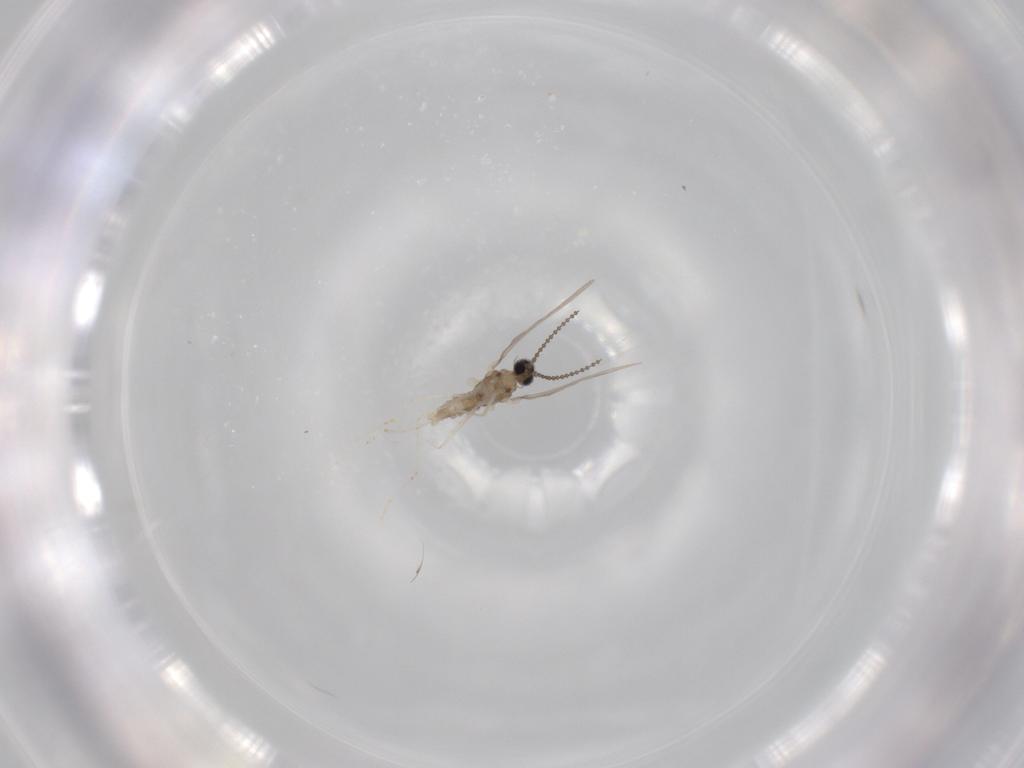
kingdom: Animalia
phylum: Arthropoda
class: Insecta
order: Diptera
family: Cecidomyiidae
